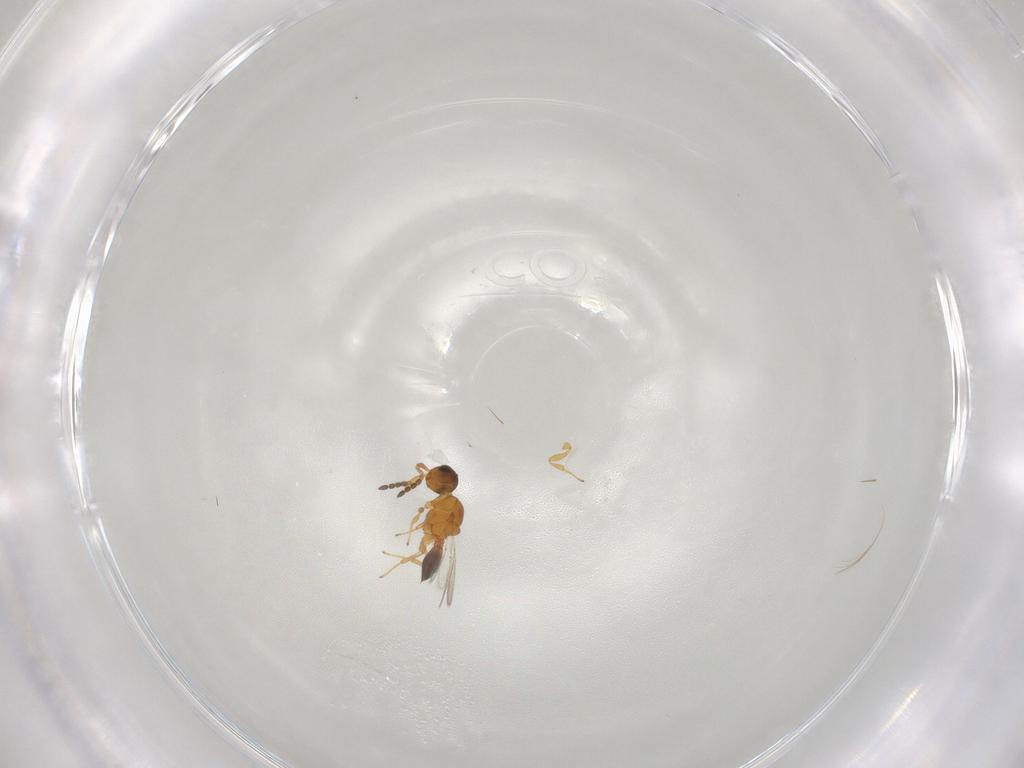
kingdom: Animalia
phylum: Arthropoda
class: Insecta
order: Hymenoptera
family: Platygastridae
